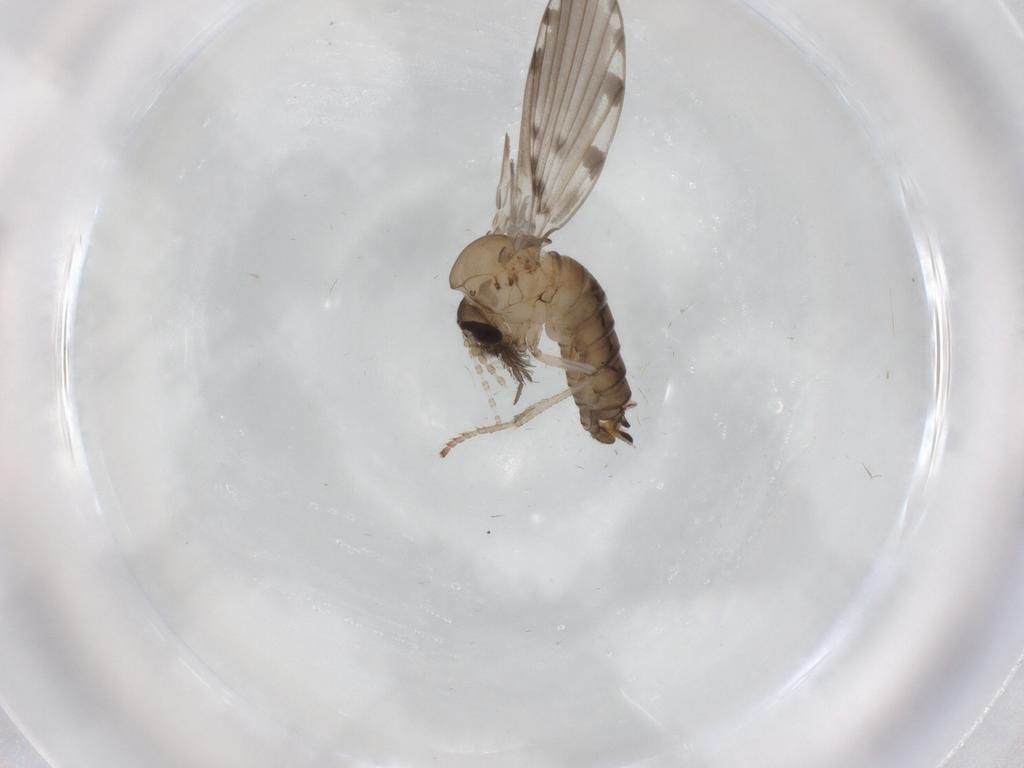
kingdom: Animalia
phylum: Arthropoda
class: Insecta
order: Diptera
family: Psychodidae
